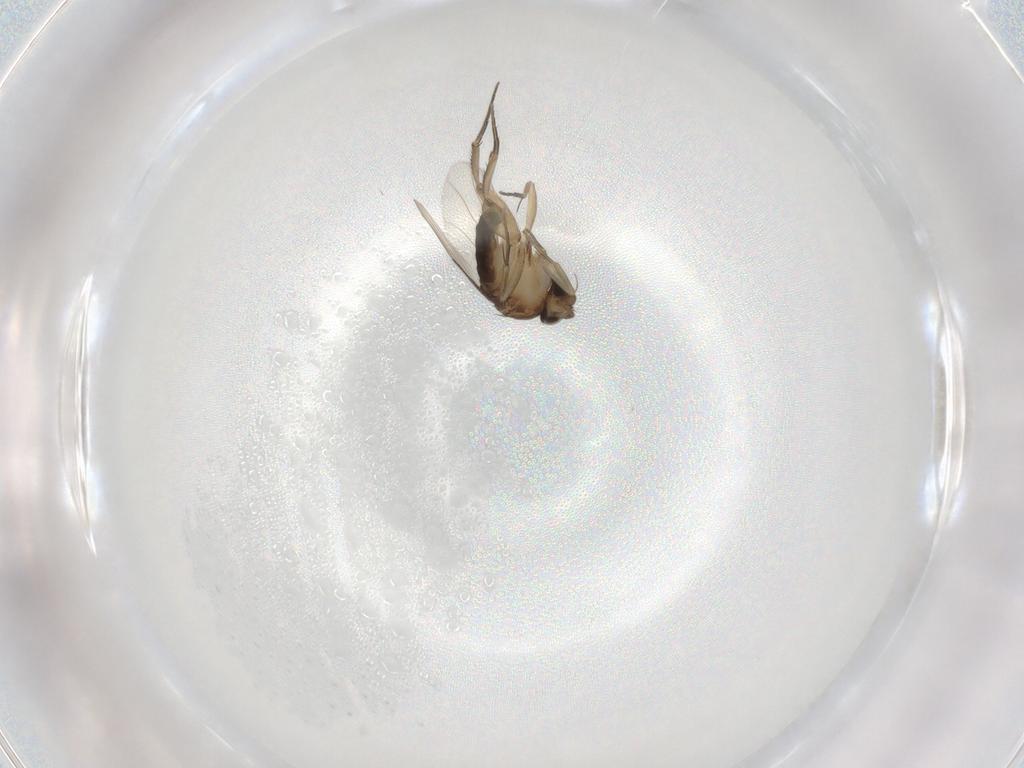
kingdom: Animalia
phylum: Arthropoda
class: Insecta
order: Diptera
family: Phoridae
